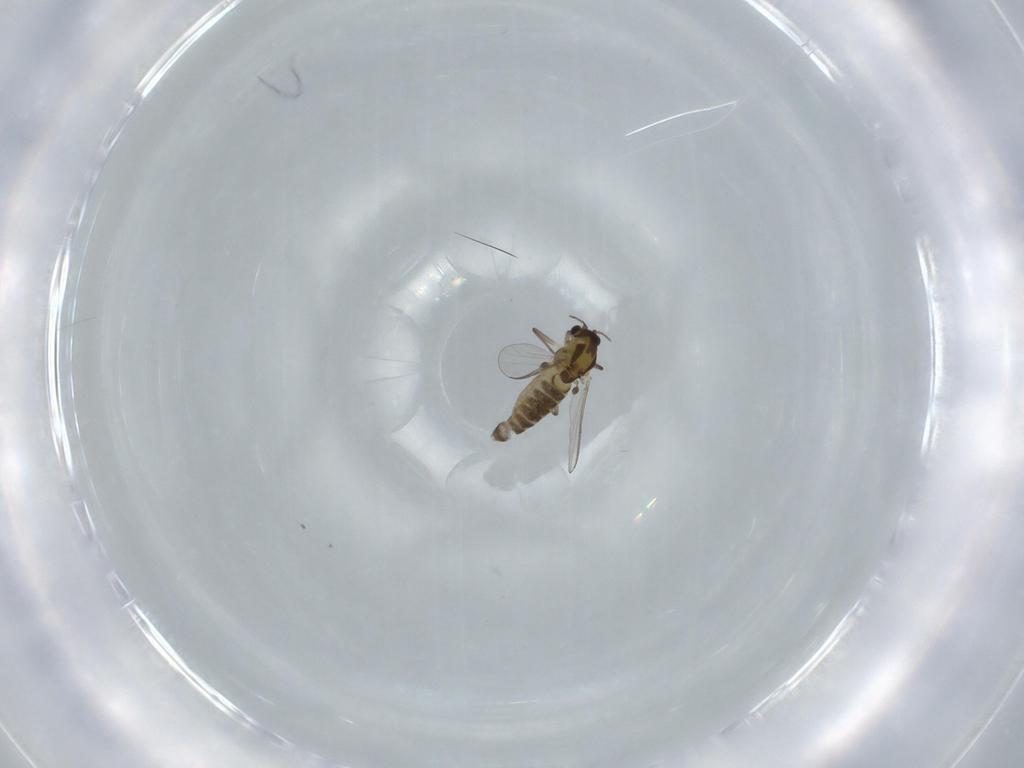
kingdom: Animalia
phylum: Arthropoda
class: Insecta
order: Diptera
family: Chironomidae
